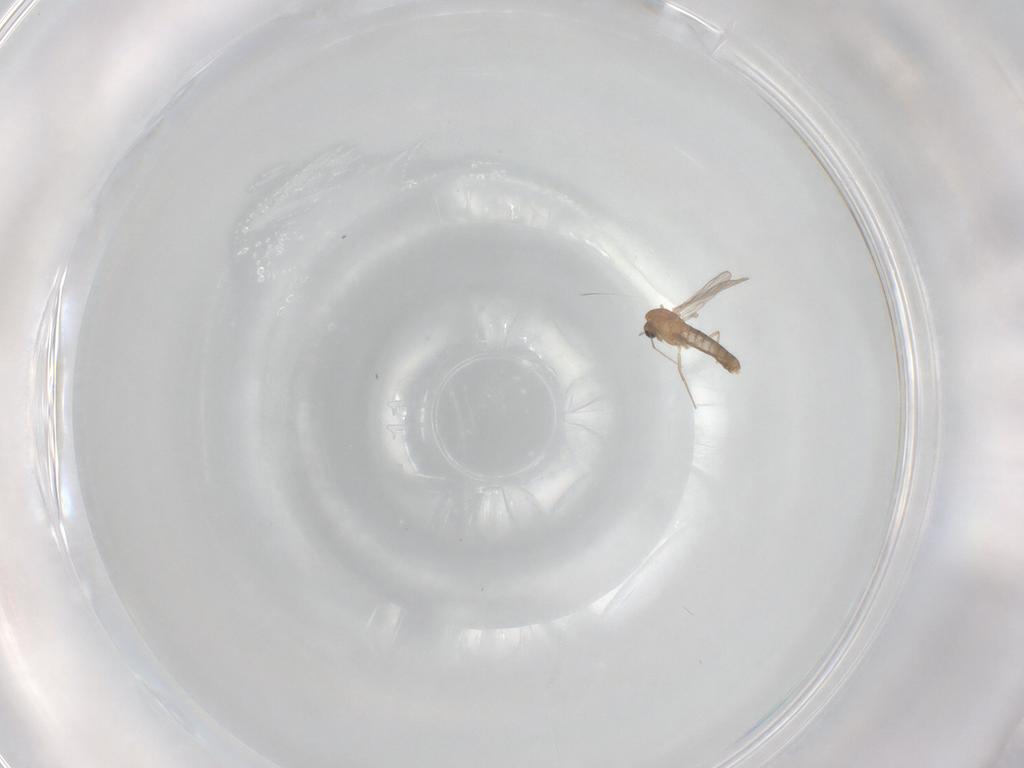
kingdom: Animalia
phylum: Arthropoda
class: Insecta
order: Diptera
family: Chironomidae
